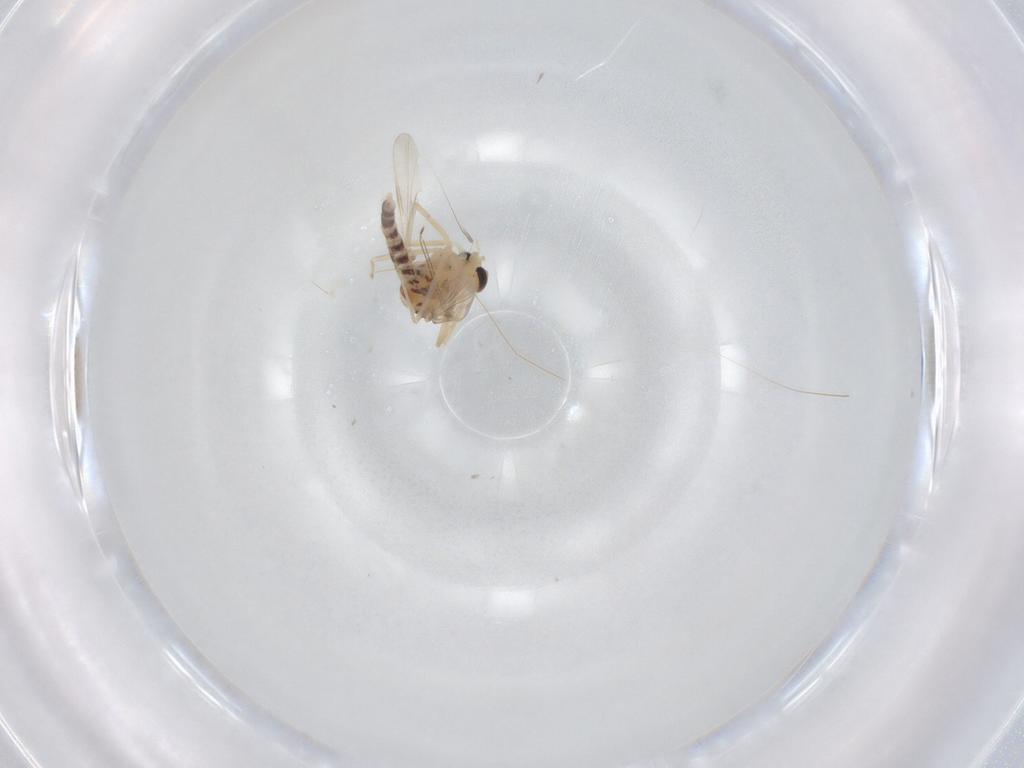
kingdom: Animalia
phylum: Arthropoda
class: Insecta
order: Diptera
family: Chironomidae
